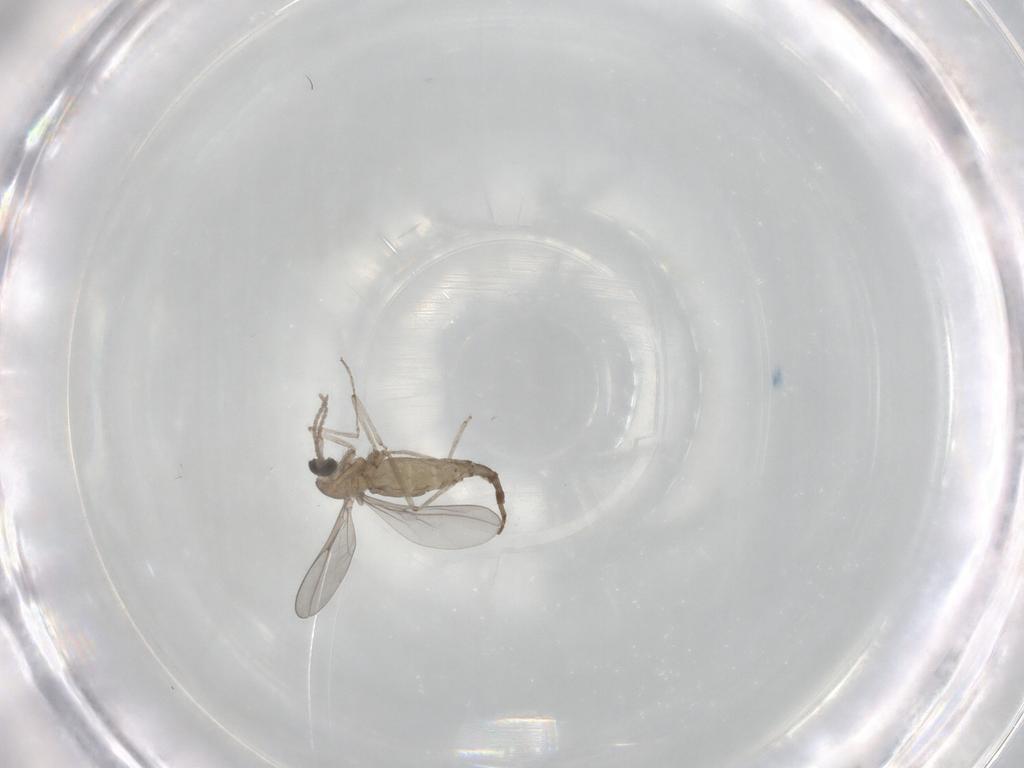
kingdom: Animalia
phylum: Arthropoda
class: Insecta
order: Diptera
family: Cecidomyiidae
